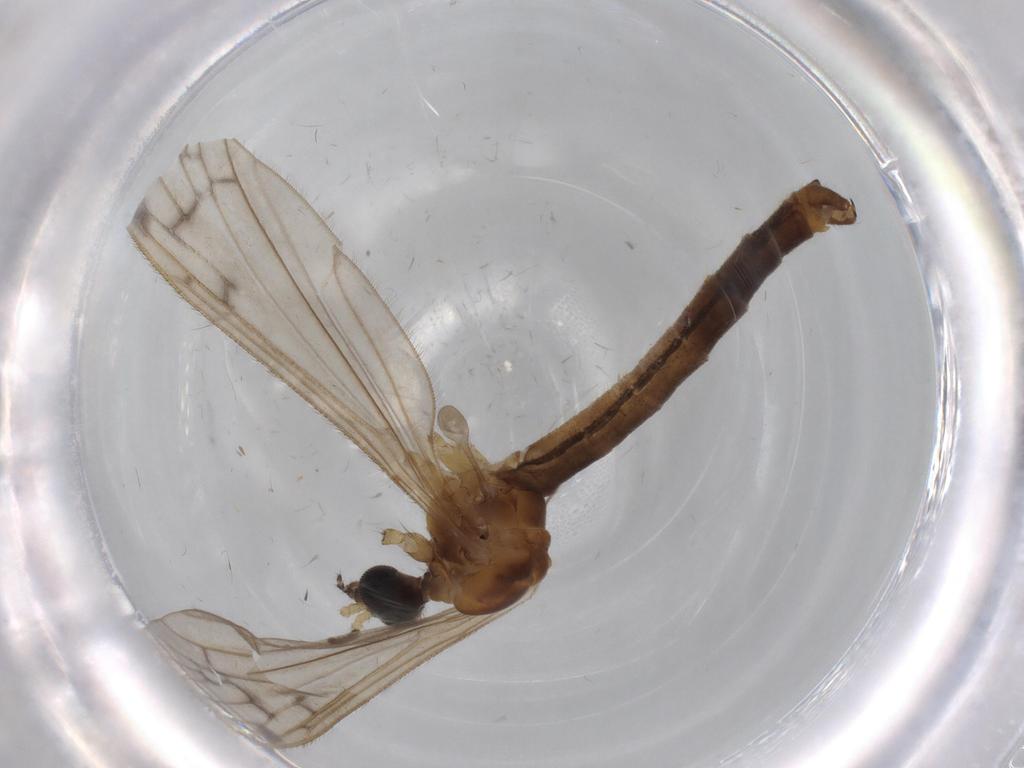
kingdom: Animalia
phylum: Arthropoda
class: Insecta
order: Diptera
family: Phoridae
